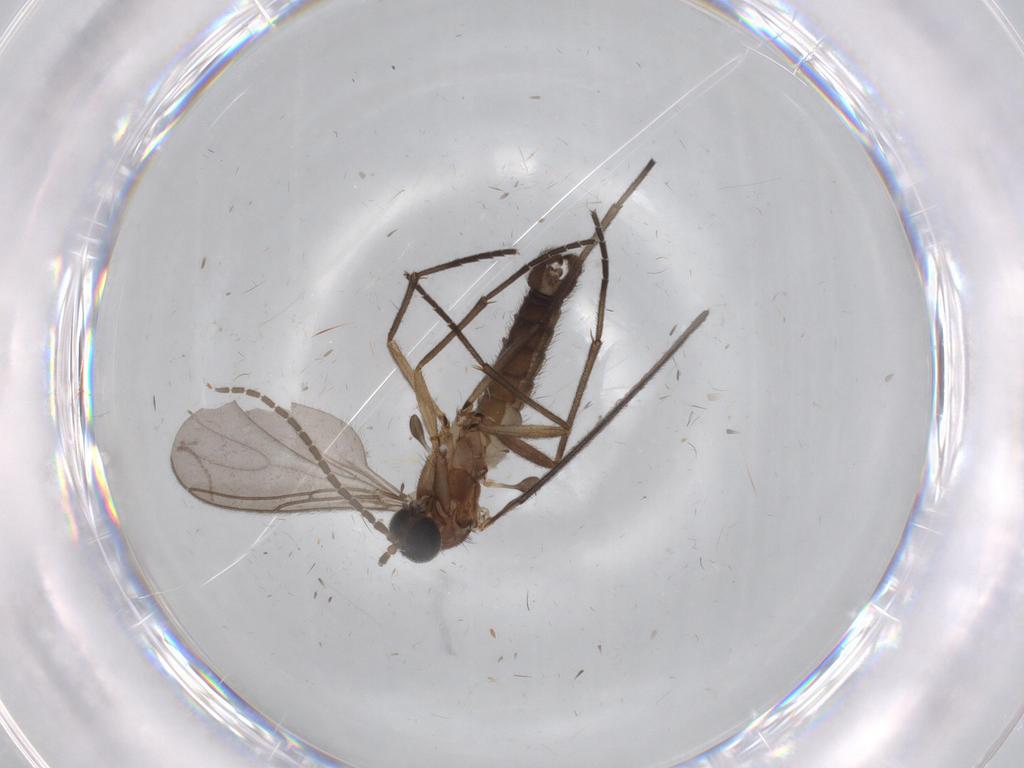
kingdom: Animalia
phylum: Arthropoda
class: Insecta
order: Diptera
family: Sciaridae
